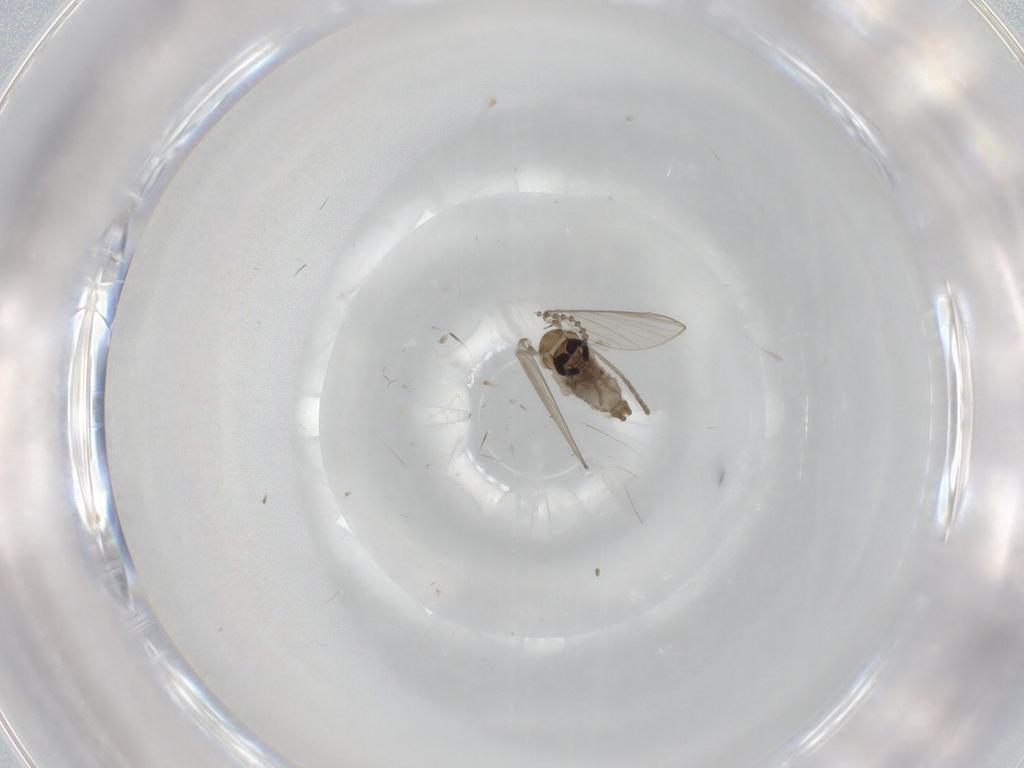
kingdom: Animalia
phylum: Arthropoda
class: Insecta
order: Diptera
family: Psychodidae
